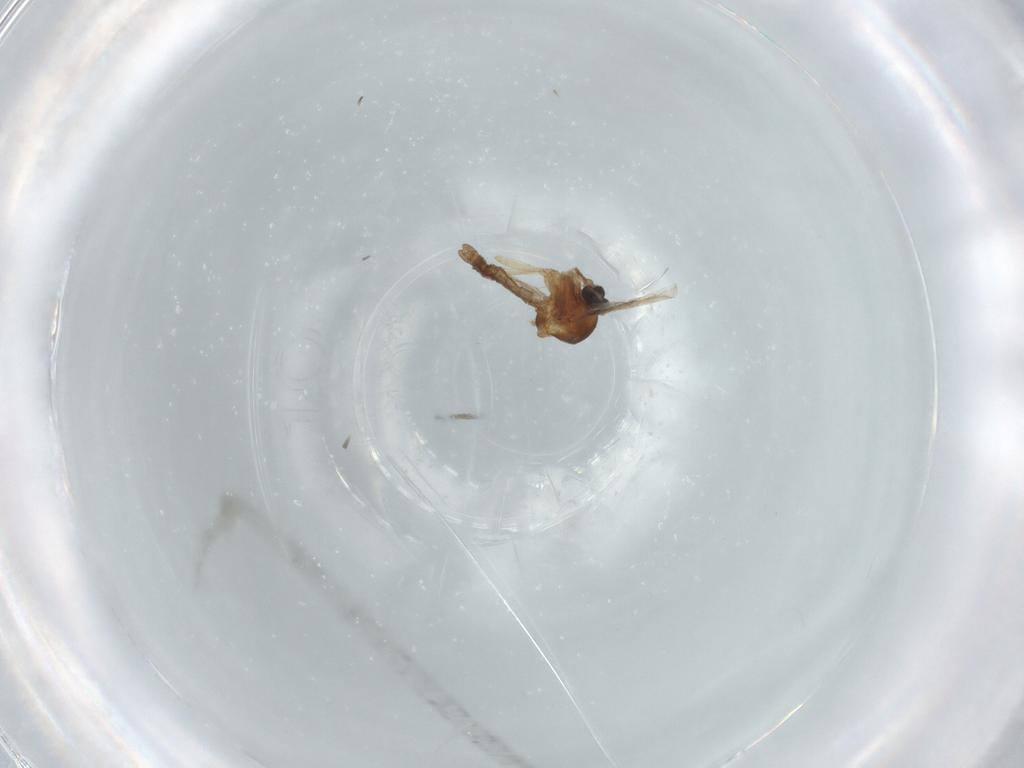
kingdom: Animalia
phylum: Arthropoda
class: Insecta
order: Diptera
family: Ceratopogonidae
